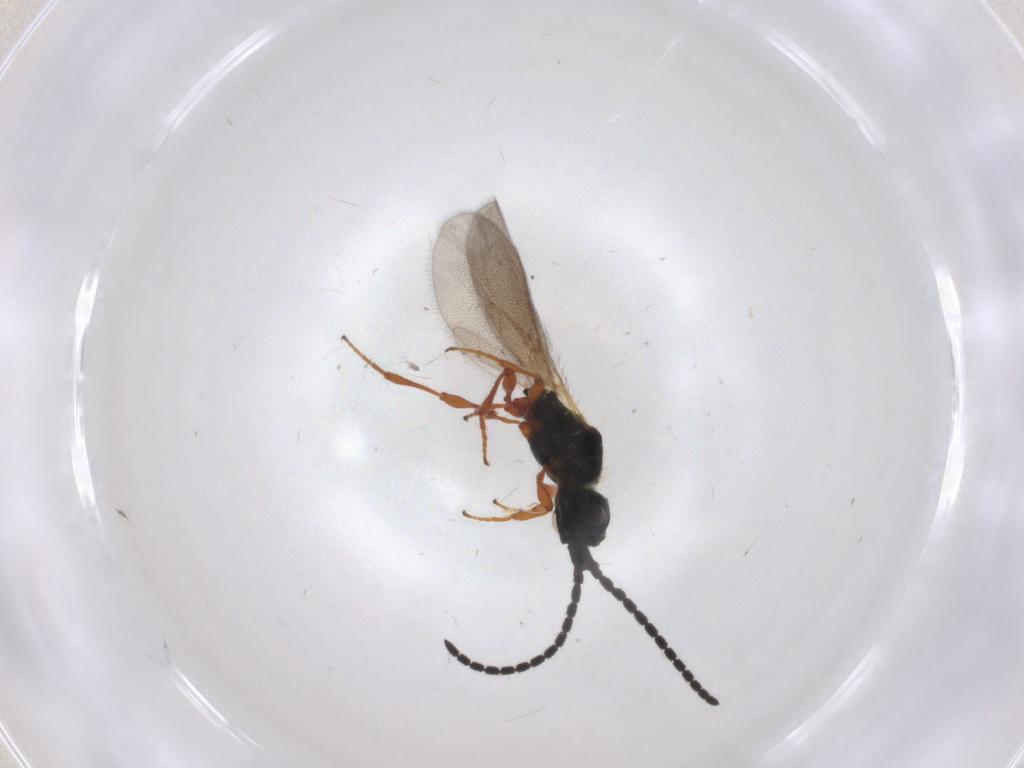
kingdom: Animalia
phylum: Arthropoda
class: Insecta
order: Hymenoptera
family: Diapriidae
